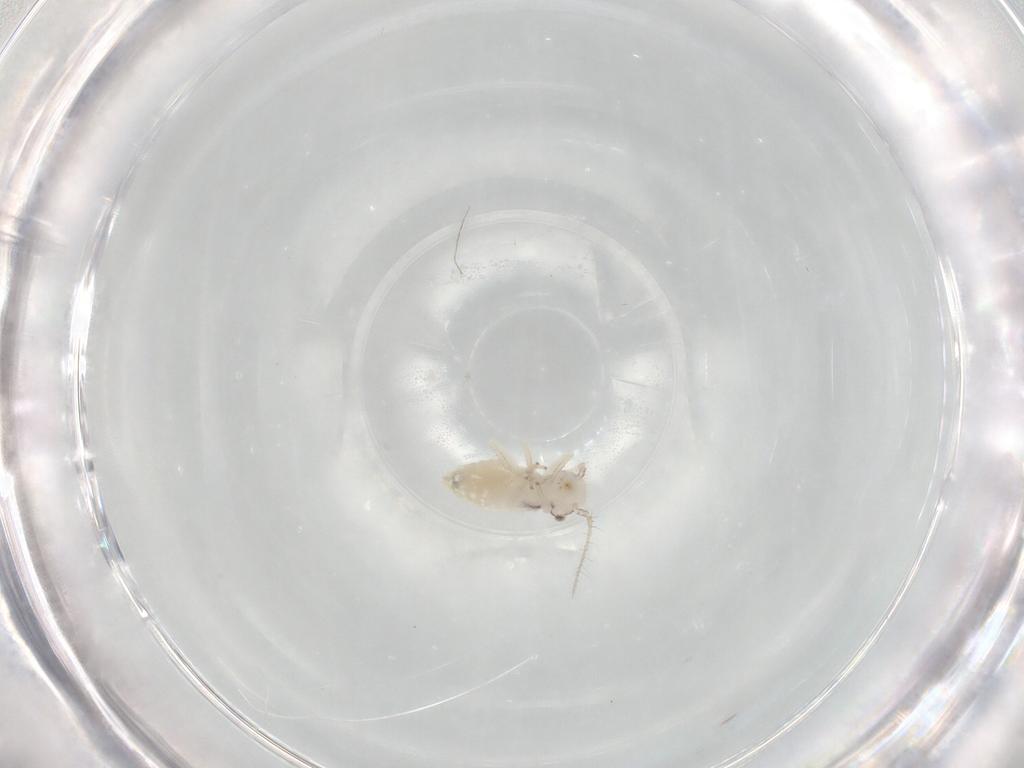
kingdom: Animalia
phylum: Arthropoda
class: Insecta
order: Psocodea
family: Pseudocaeciliidae
